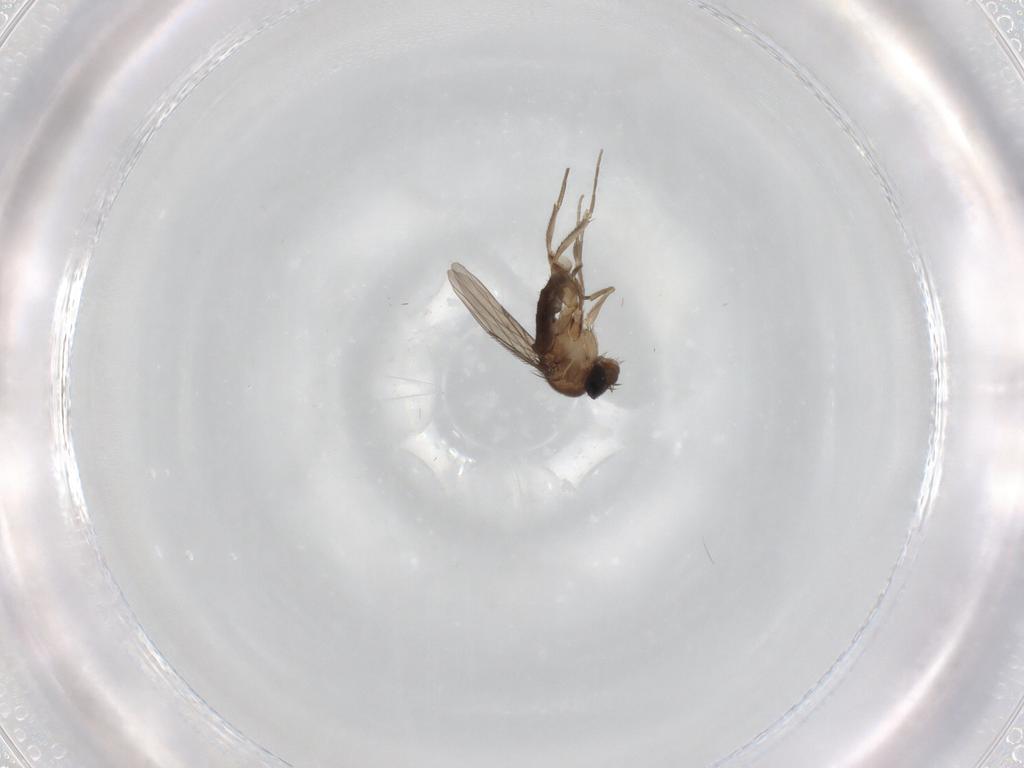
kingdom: Animalia
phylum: Arthropoda
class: Insecta
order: Diptera
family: Phoridae
